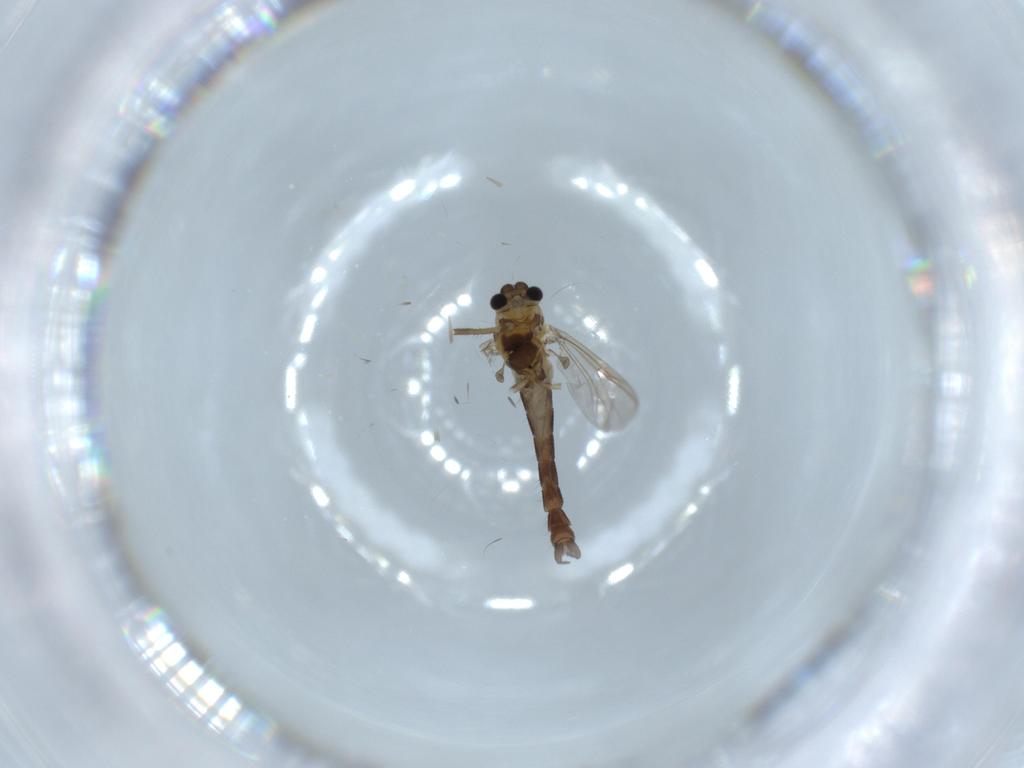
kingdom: Animalia
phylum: Arthropoda
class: Insecta
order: Diptera
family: Chironomidae
